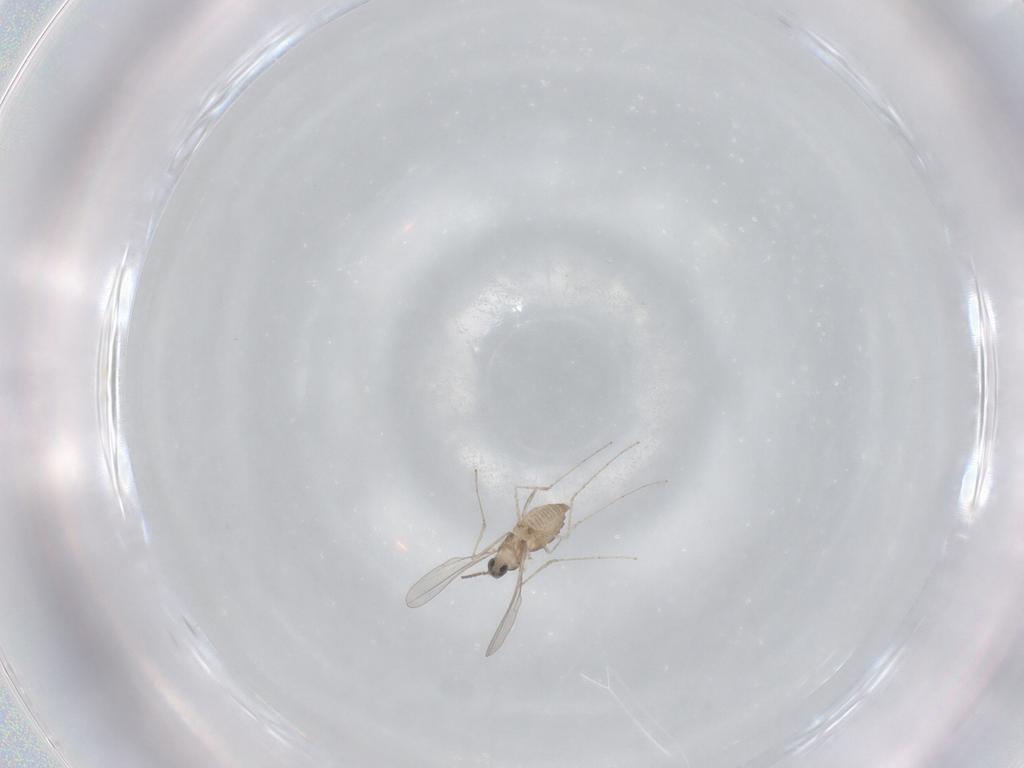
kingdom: Animalia
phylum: Arthropoda
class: Insecta
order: Diptera
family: Cecidomyiidae
